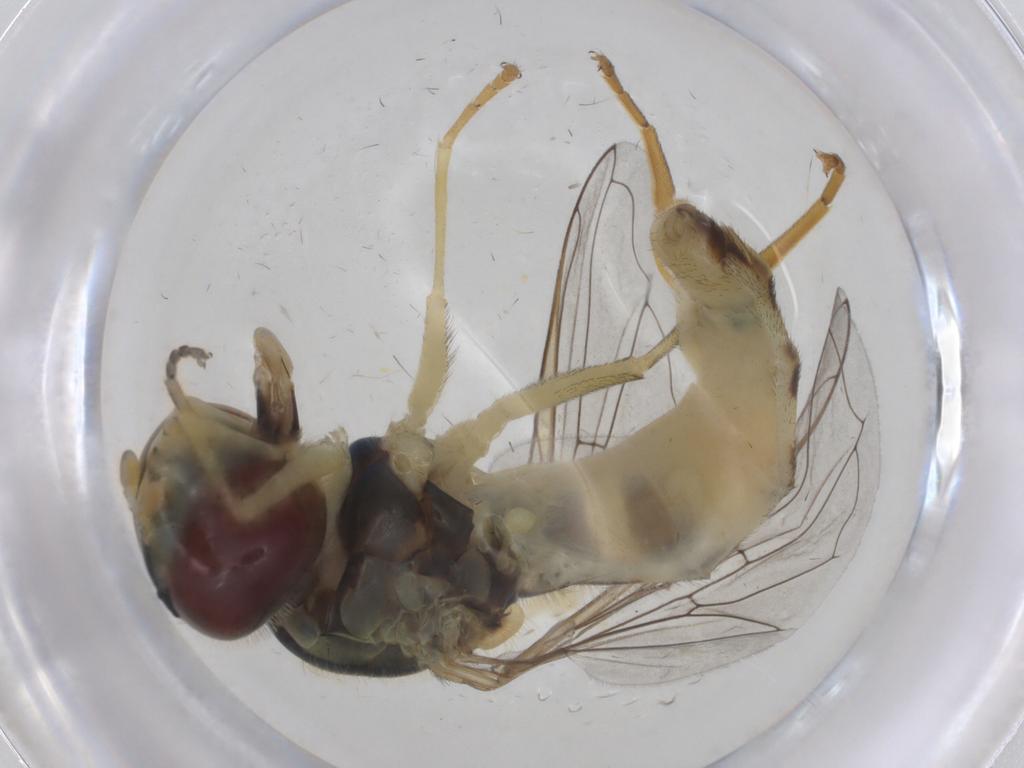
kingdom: Animalia
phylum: Arthropoda
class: Insecta
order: Diptera
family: Syrphidae
